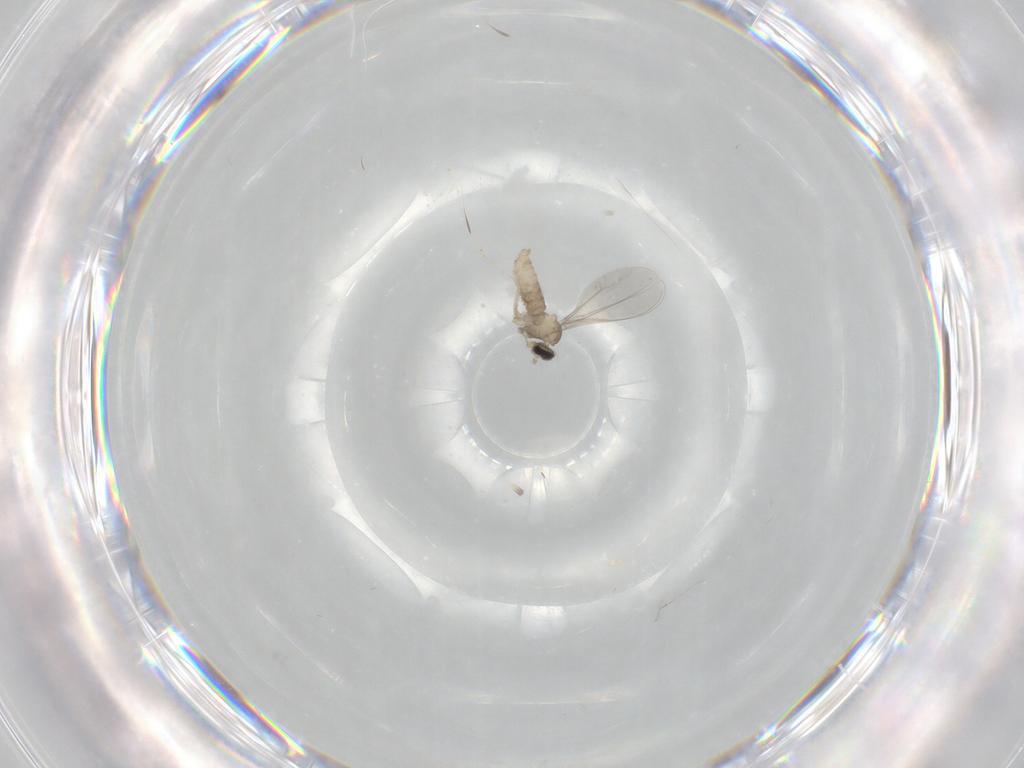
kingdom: Animalia
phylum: Arthropoda
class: Insecta
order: Diptera
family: Cecidomyiidae
